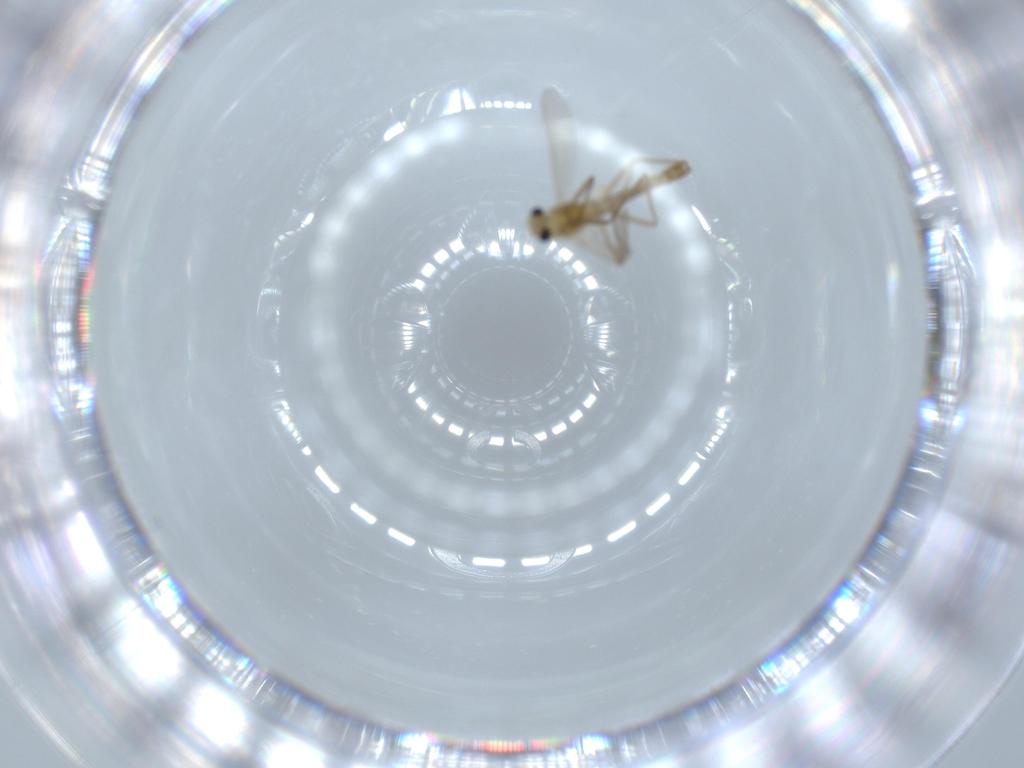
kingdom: Animalia
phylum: Arthropoda
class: Insecta
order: Diptera
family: Chironomidae
